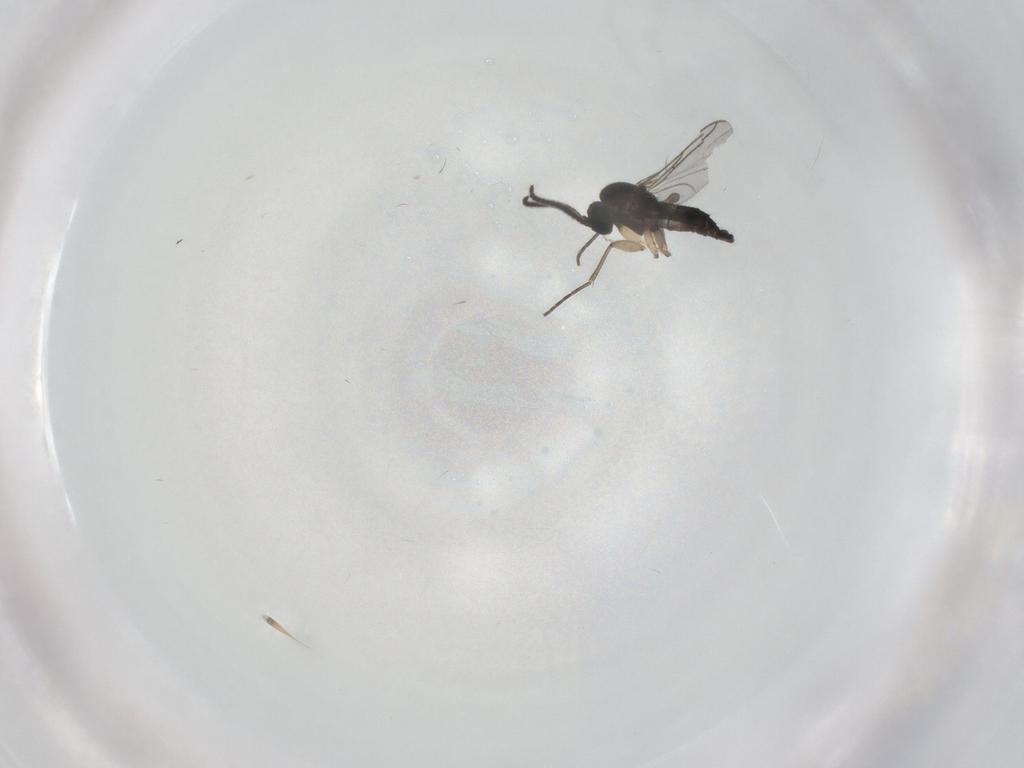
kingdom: Animalia
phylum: Arthropoda
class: Insecta
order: Diptera
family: Sciaridae
